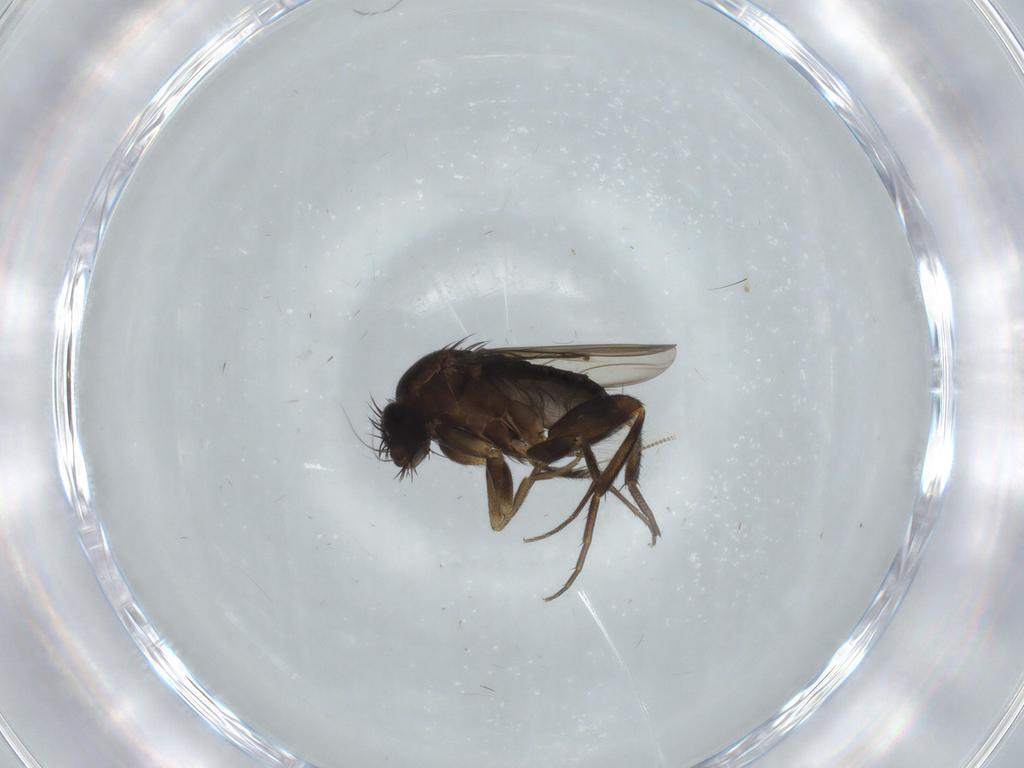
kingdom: Animalia
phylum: Arthropoda
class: Insecta
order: Diptera
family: Phoridae
